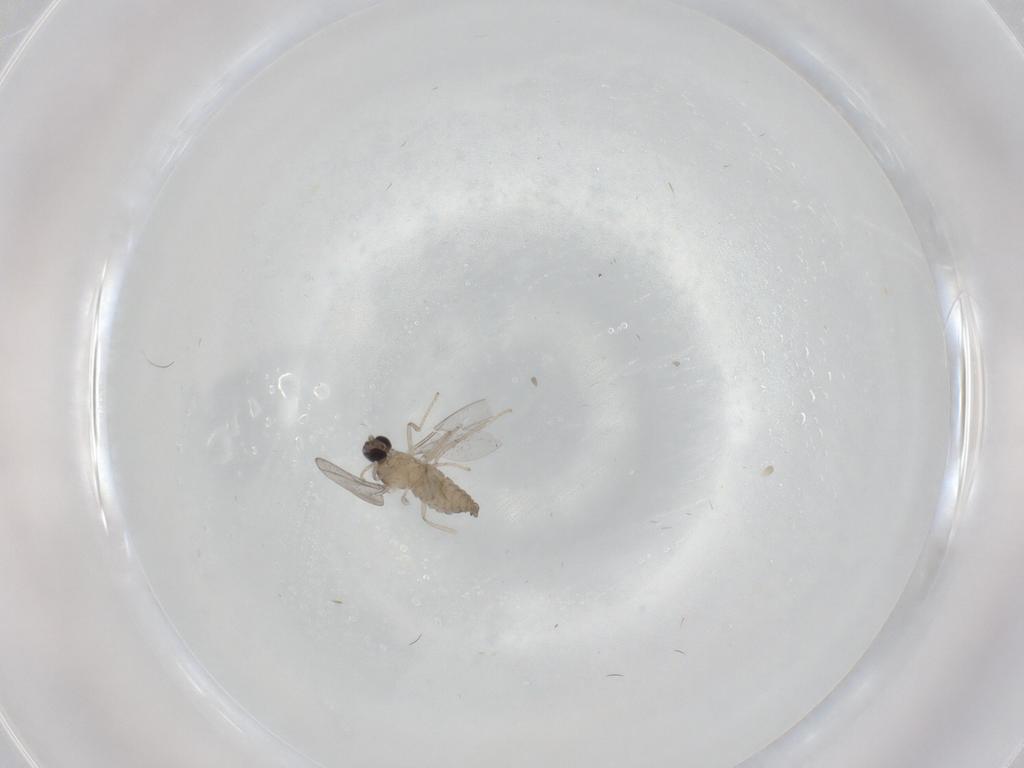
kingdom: Animalia
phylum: Arthropoda
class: Insecta
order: Diptera
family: Cecidomyiidae
